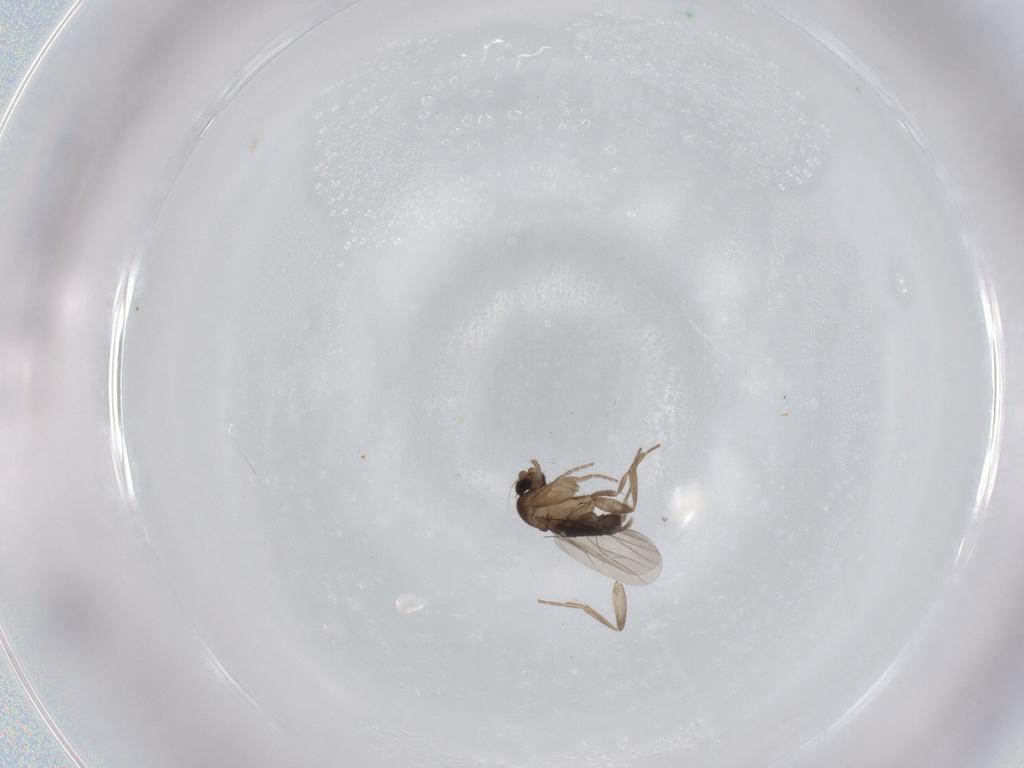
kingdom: Animalia
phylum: Arthropoda
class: Insecta
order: Diptera
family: Phoridae
